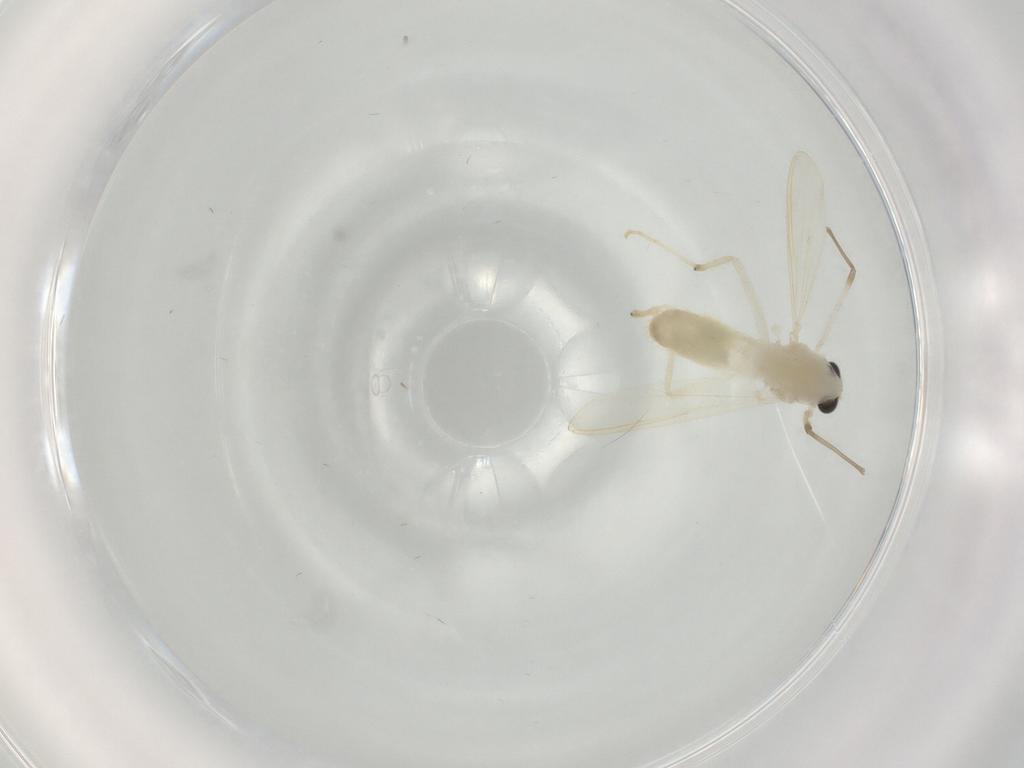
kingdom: Animalia
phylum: Arthropoda
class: Insecta
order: Diptera
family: Chironomidae
